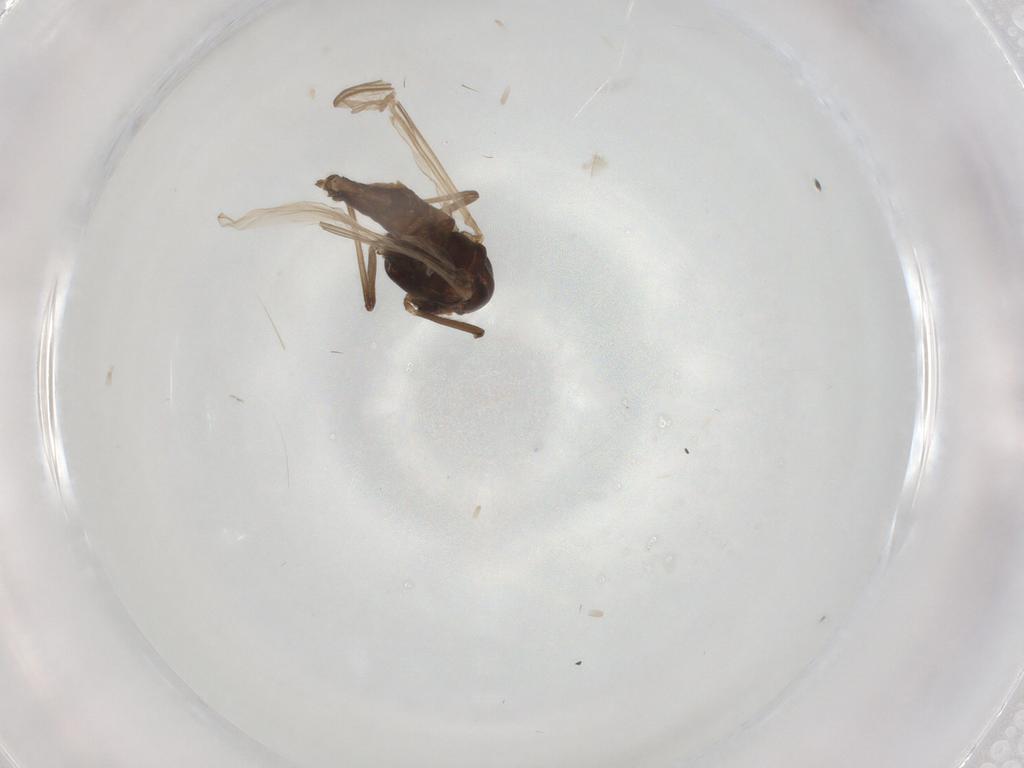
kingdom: Animalia
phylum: Arthropoda
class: Insecta
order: Diptera
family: Chironomidae
